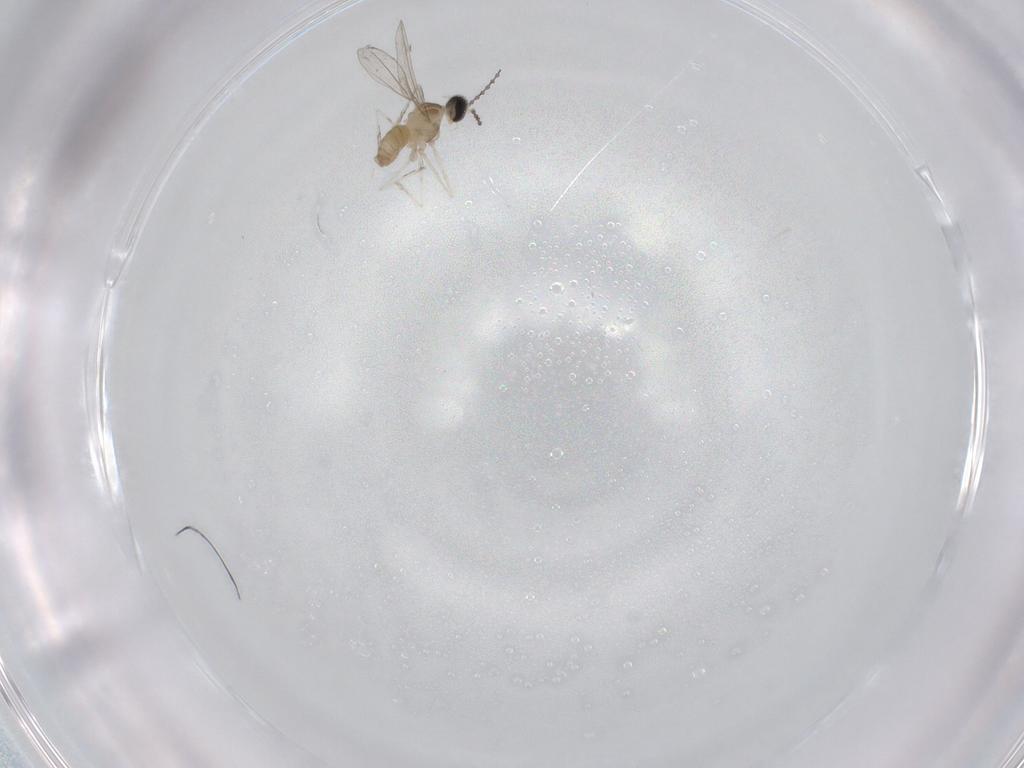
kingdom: Animalia
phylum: Arthropoda
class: Insecta
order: Diptera
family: Cecidomyiidae
